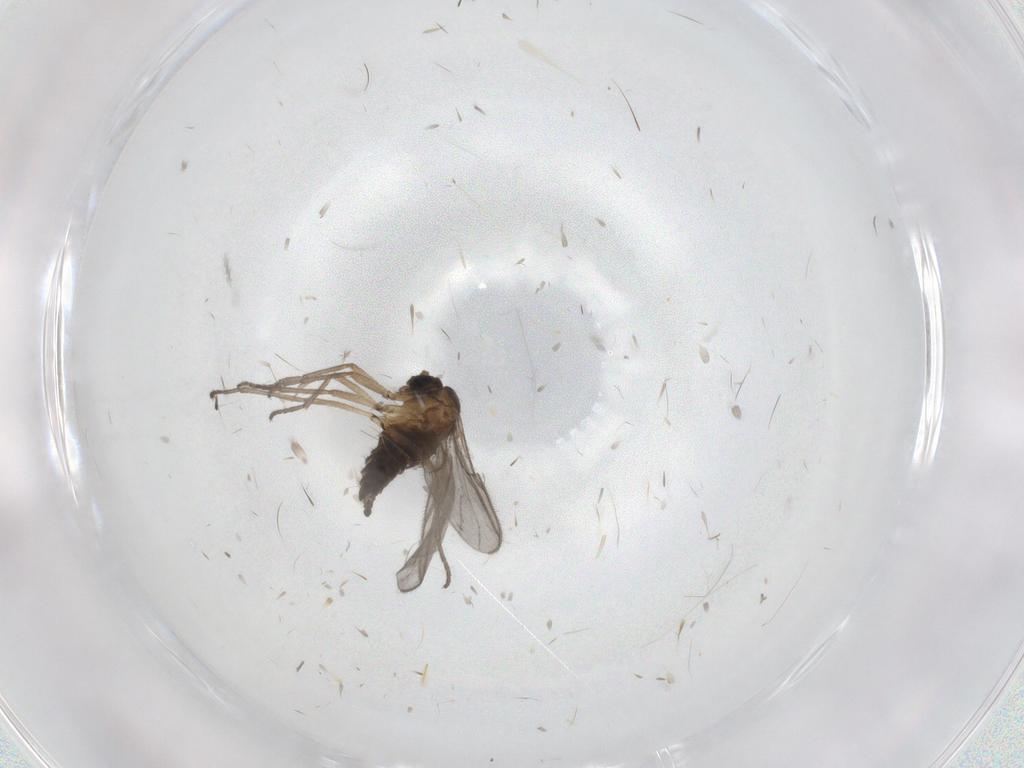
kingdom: Animalia
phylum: Arthropoda
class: Insecta
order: Diptera
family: Sciaridae
